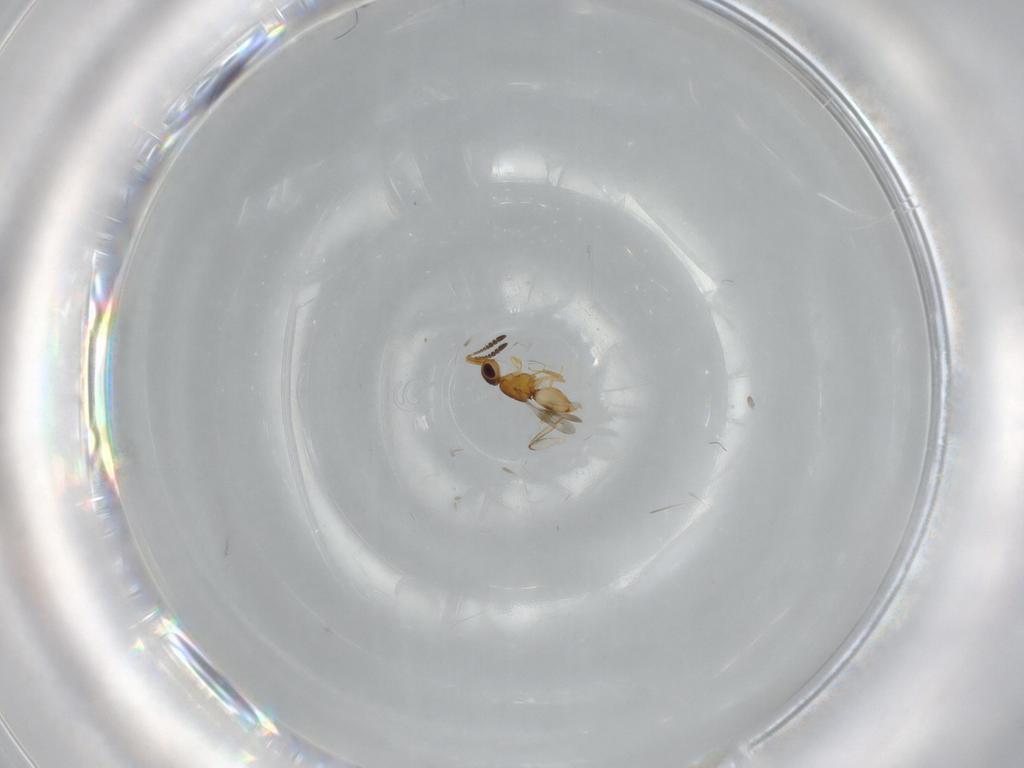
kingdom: Animalia
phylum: Arthropoda
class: Insecta
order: Hymenoptera
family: Ceraphronidae
